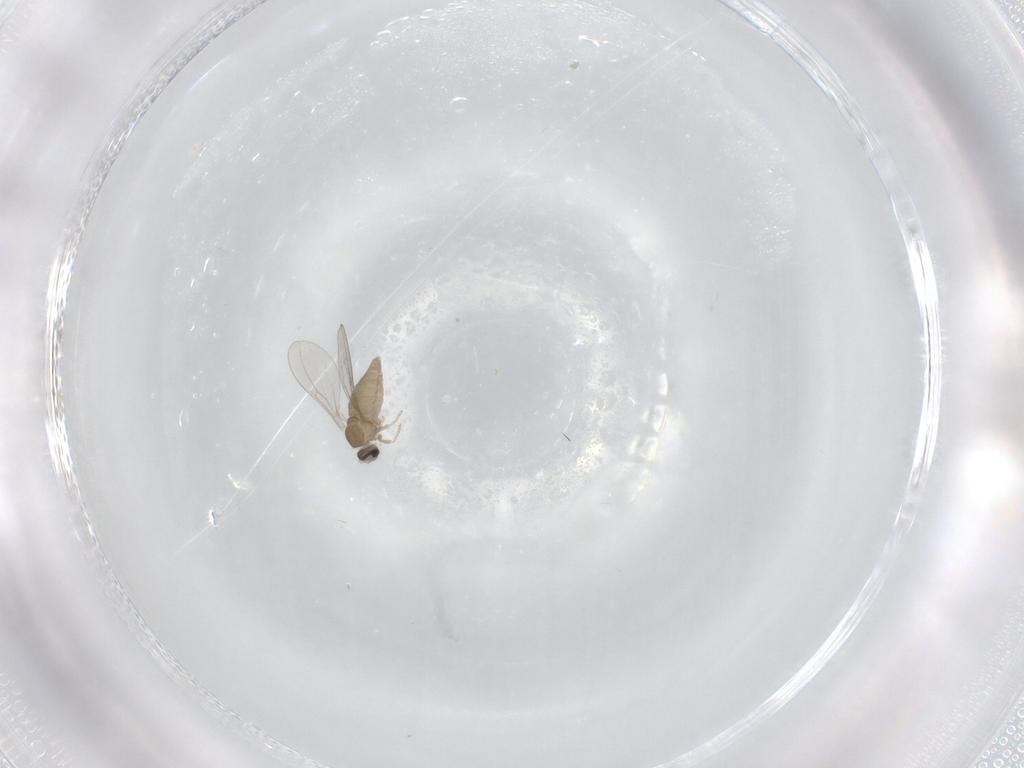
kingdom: Animalia
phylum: Arthropoda
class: Insecta
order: Diptera
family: Cecidomyiidae
